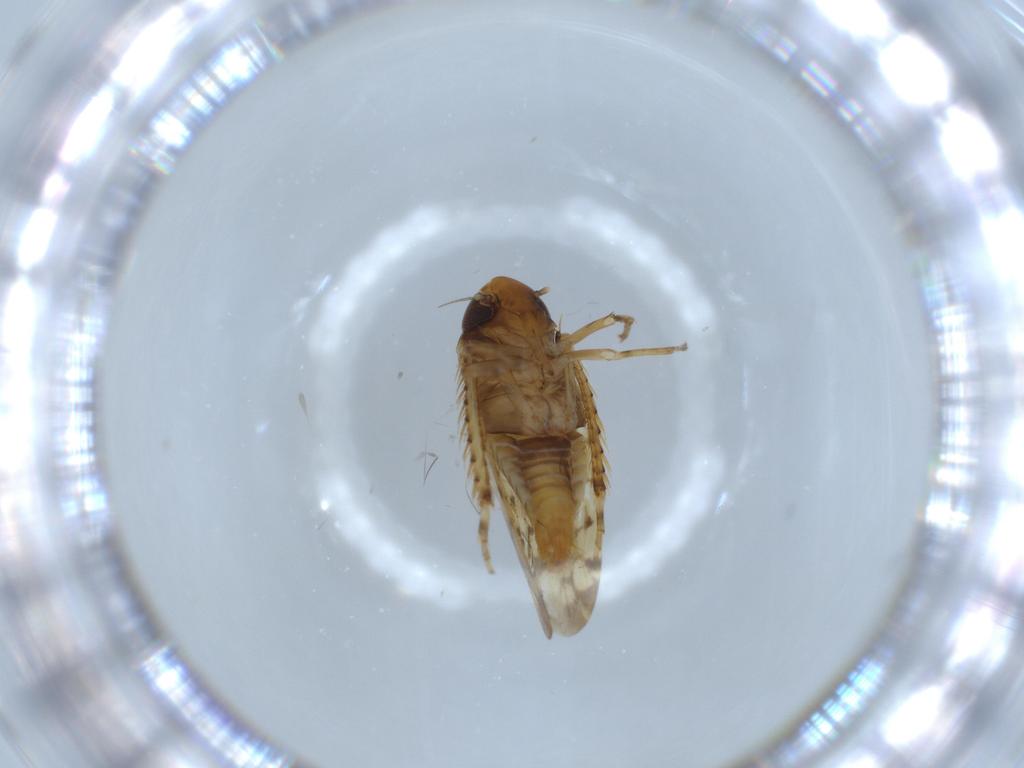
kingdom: Animalia
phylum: Arthropoda
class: Insecta
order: Hemiptera
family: Cicadellidae
